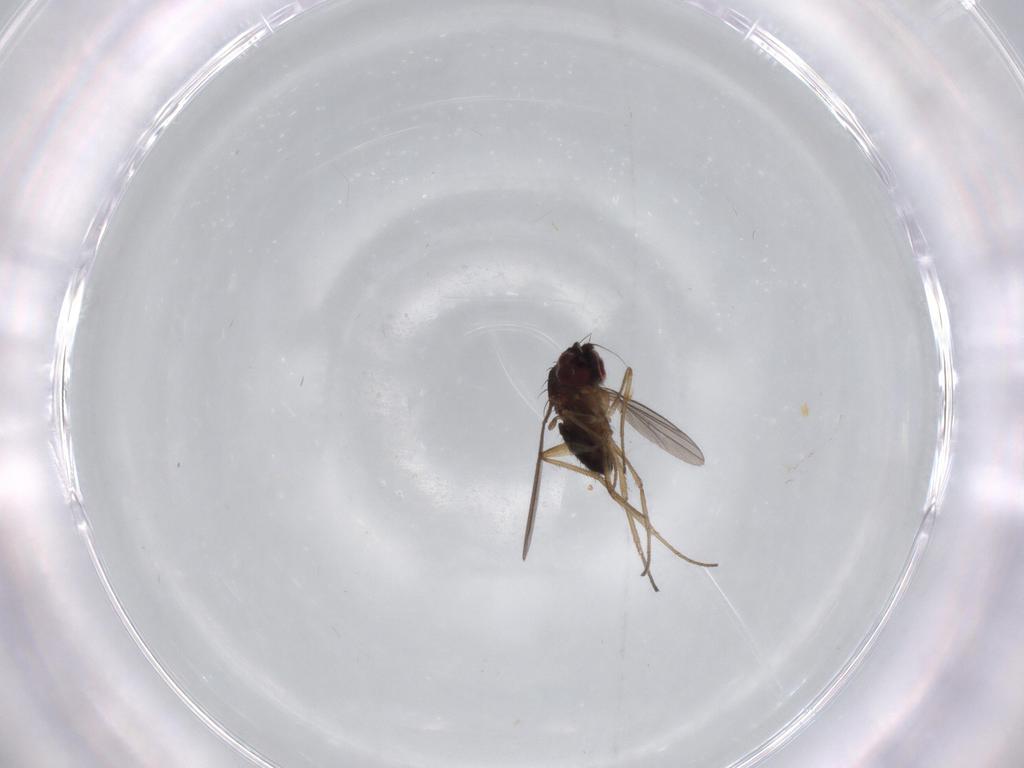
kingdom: Animalia
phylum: Arthropoda
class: Insecta
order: Diptera
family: Dolichopodidae
